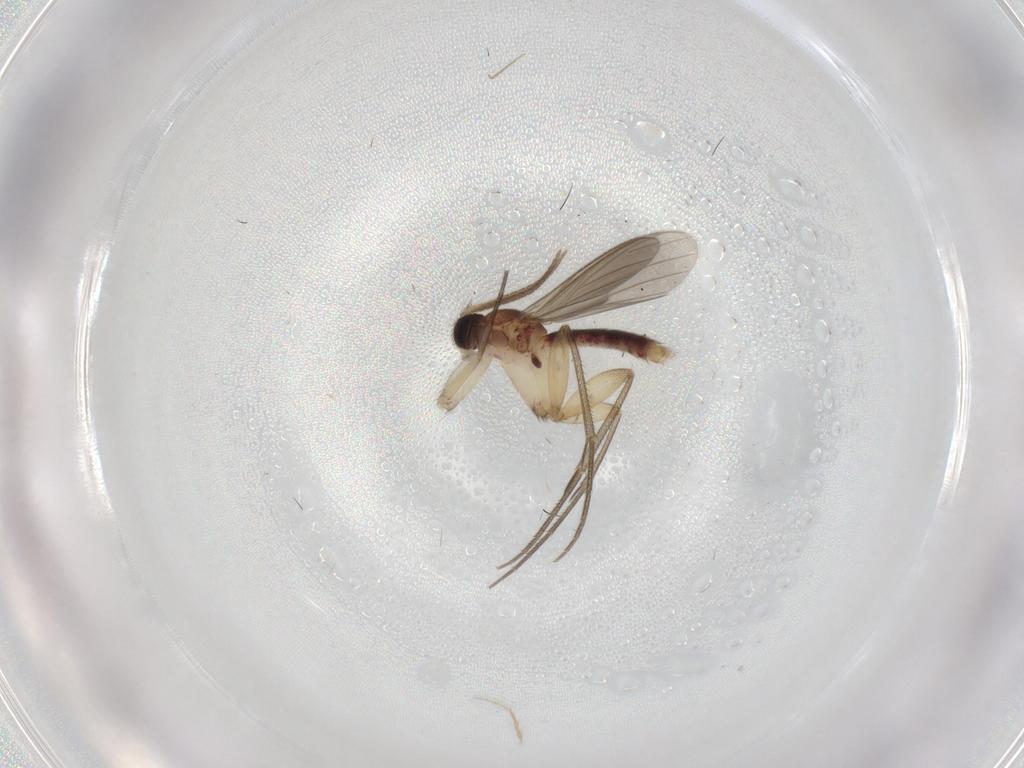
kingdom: Animalia
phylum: Arthropoda
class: Insecta
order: Diptera
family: Mycetophilidae
